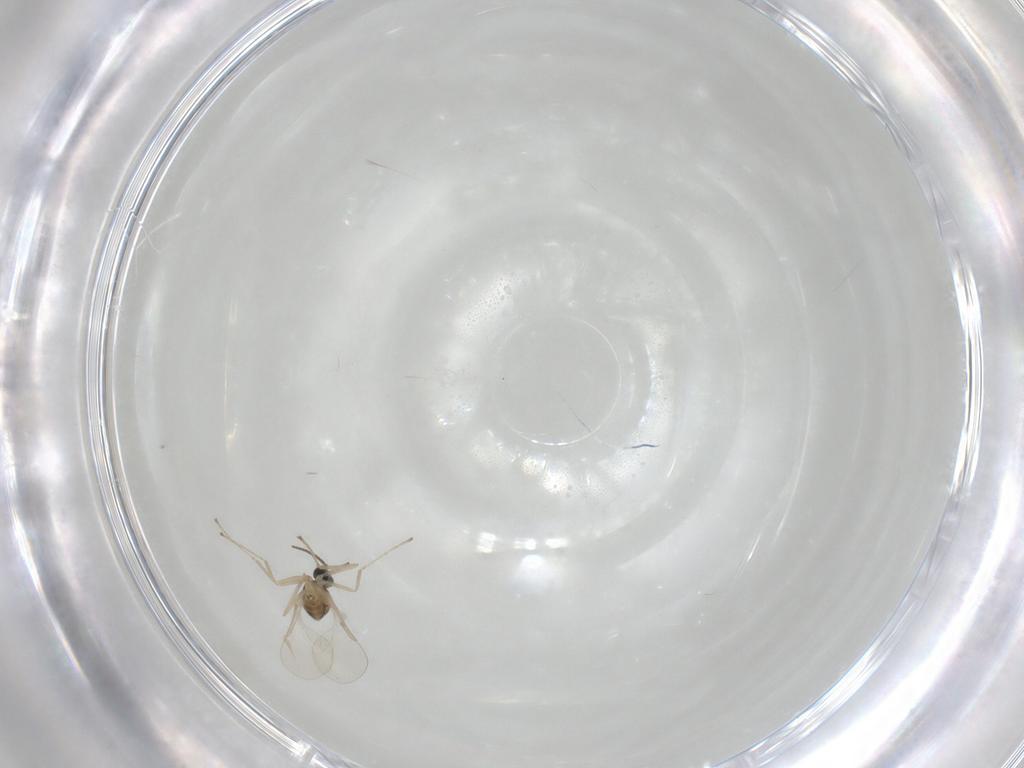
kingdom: Animalia
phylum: Arthropoda
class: Insecta
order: Diptera
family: Cecidomyiidae
